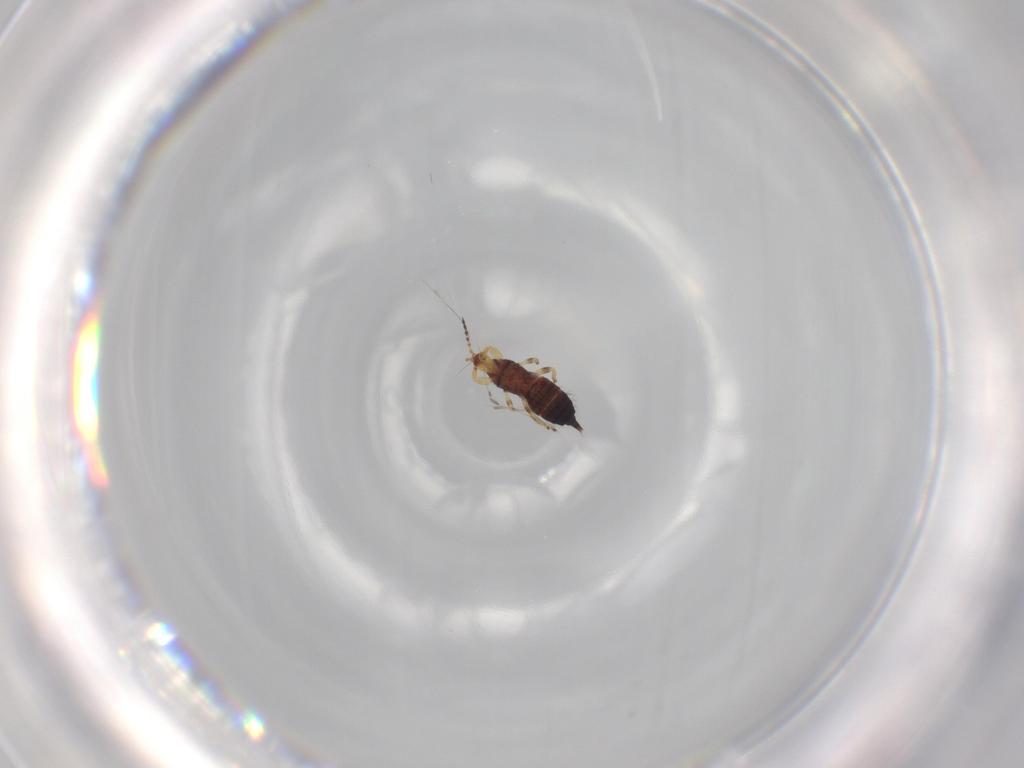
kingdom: Animalia
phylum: Arthropoda
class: Insecta
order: Thysanoptera
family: Phlaeothripidae
